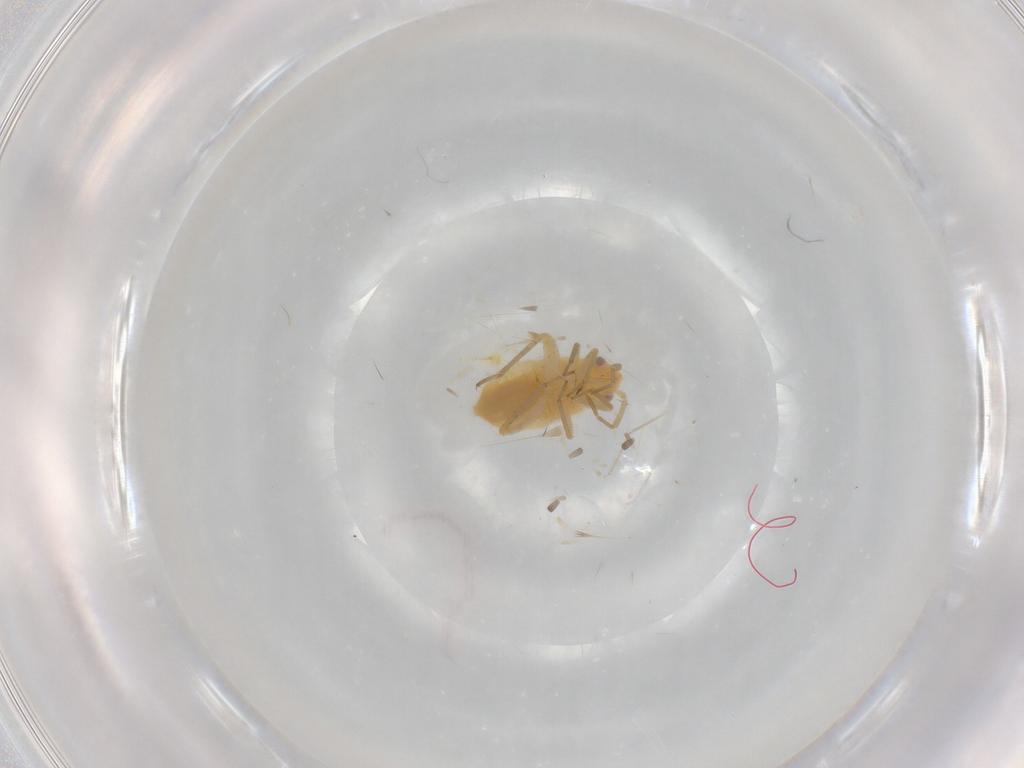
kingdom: Animalia
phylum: Arthropoda
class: Insecta
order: Hemiptera
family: Miridae
